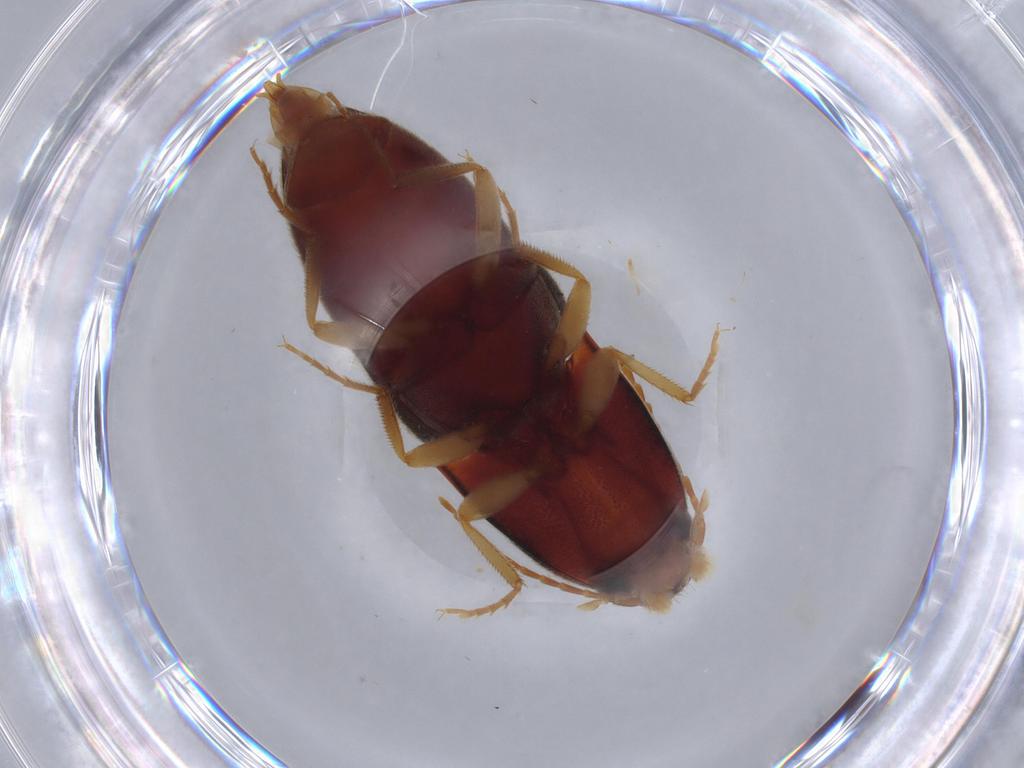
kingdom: Animalia
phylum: Arthropoda
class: Insecta
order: Coleoptera
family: Elateridae
